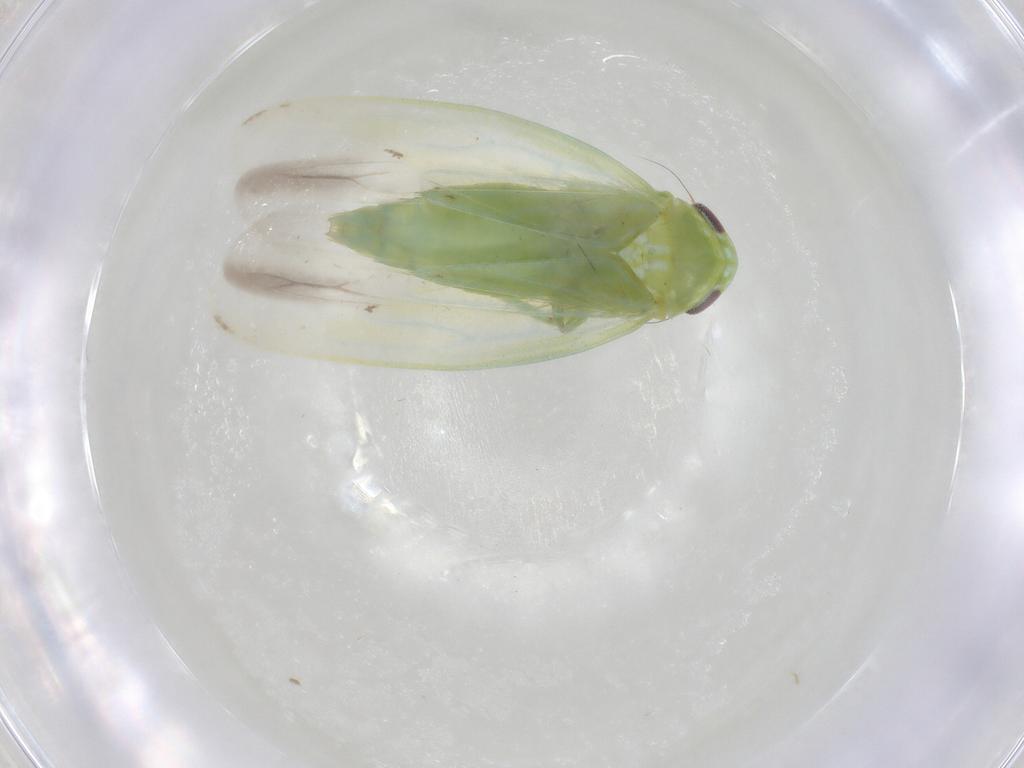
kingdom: Animalia
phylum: Arthropoda
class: Insecta
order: Hemiptera
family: Cicadellidae
